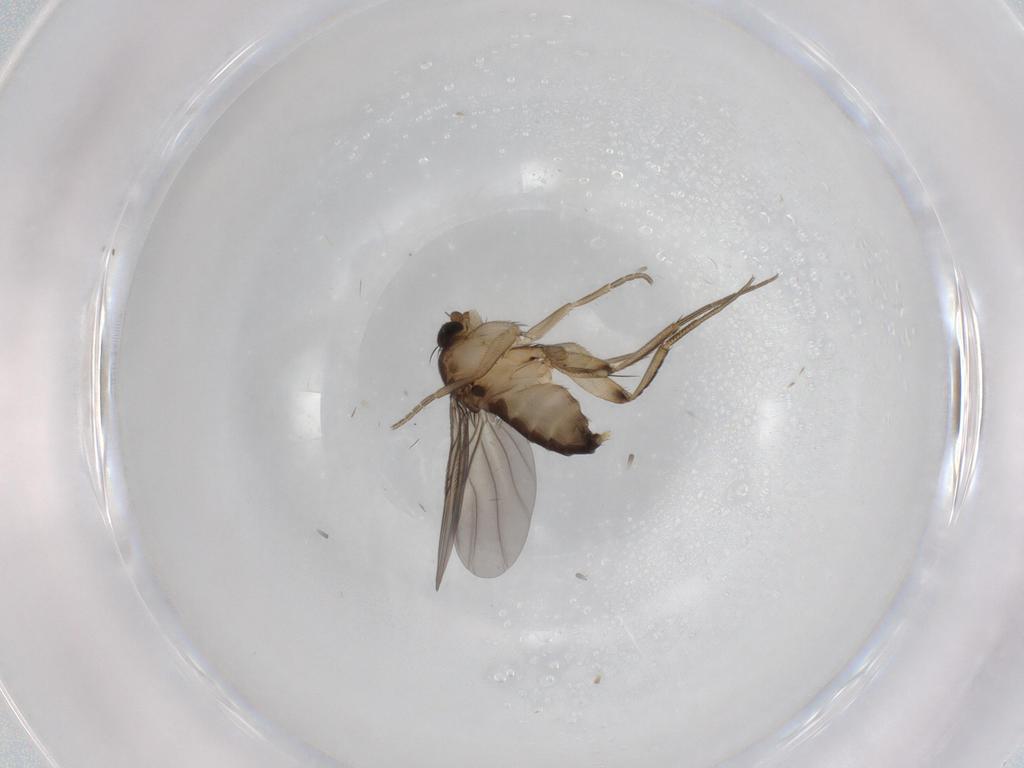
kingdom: Animalia
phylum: Arthropoda
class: Insecta
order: Diptera
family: Phoridae
